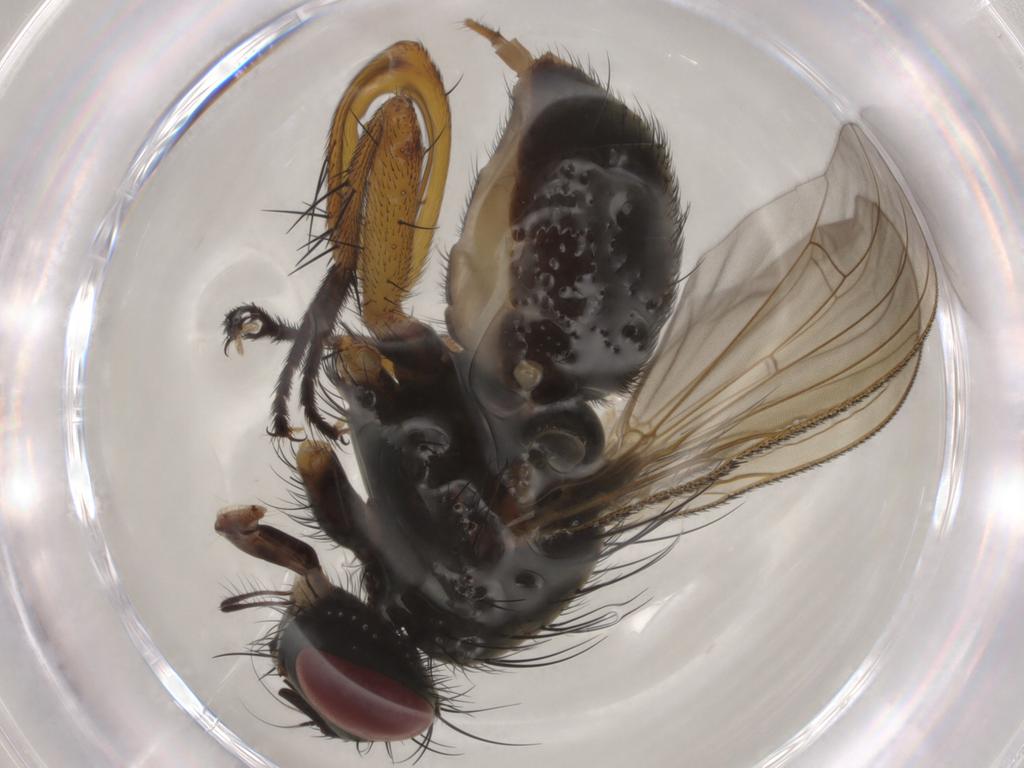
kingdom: Animalia
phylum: Arthropoda
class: Insecta
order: Diptera
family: Muscidae
